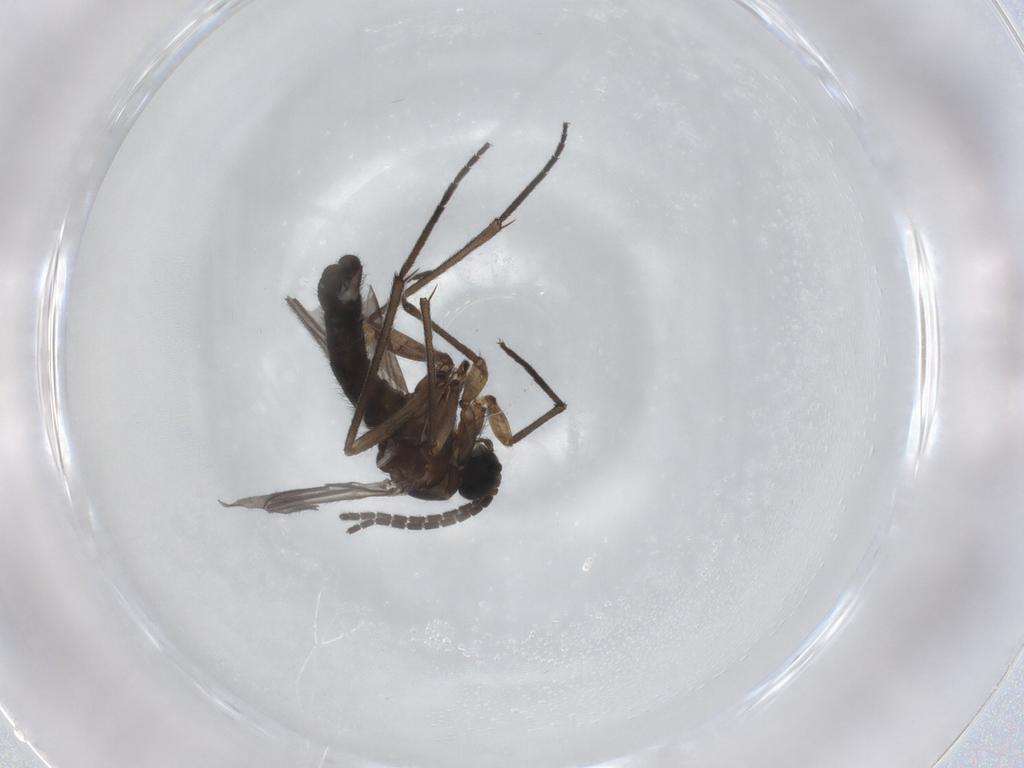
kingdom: Animalia
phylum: Arthropoda
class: Insecta
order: Diptera
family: Sciaridae
